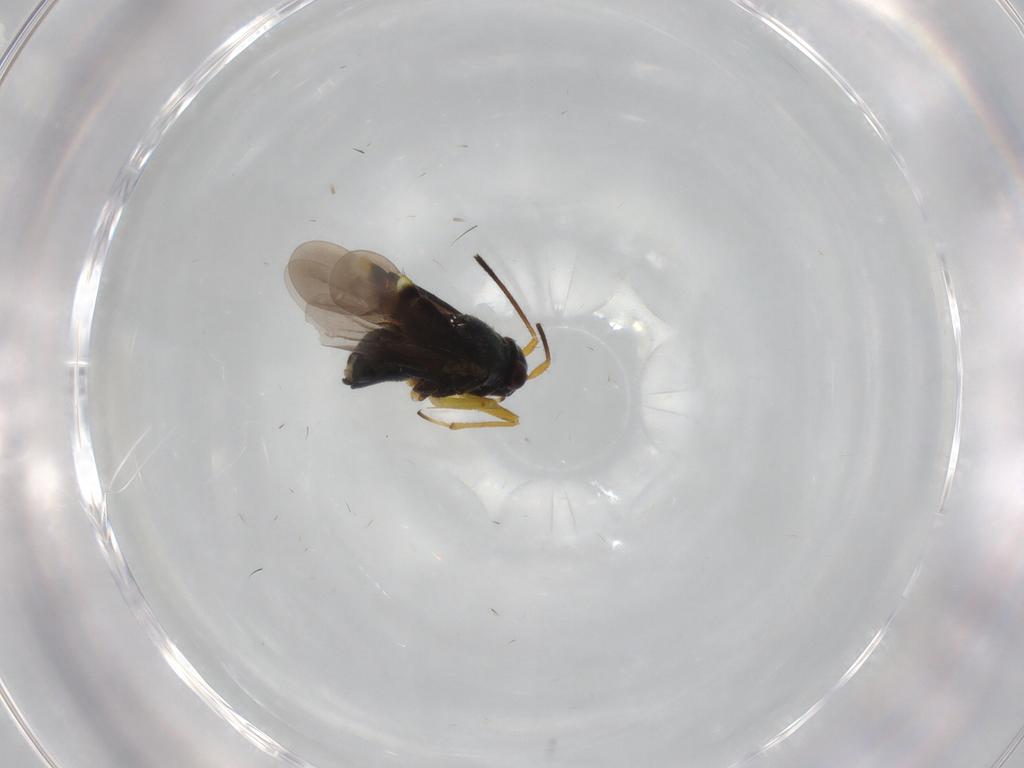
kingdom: Animalia
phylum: Arthropoda
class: Insecta
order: Hemiptera
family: Miridae
